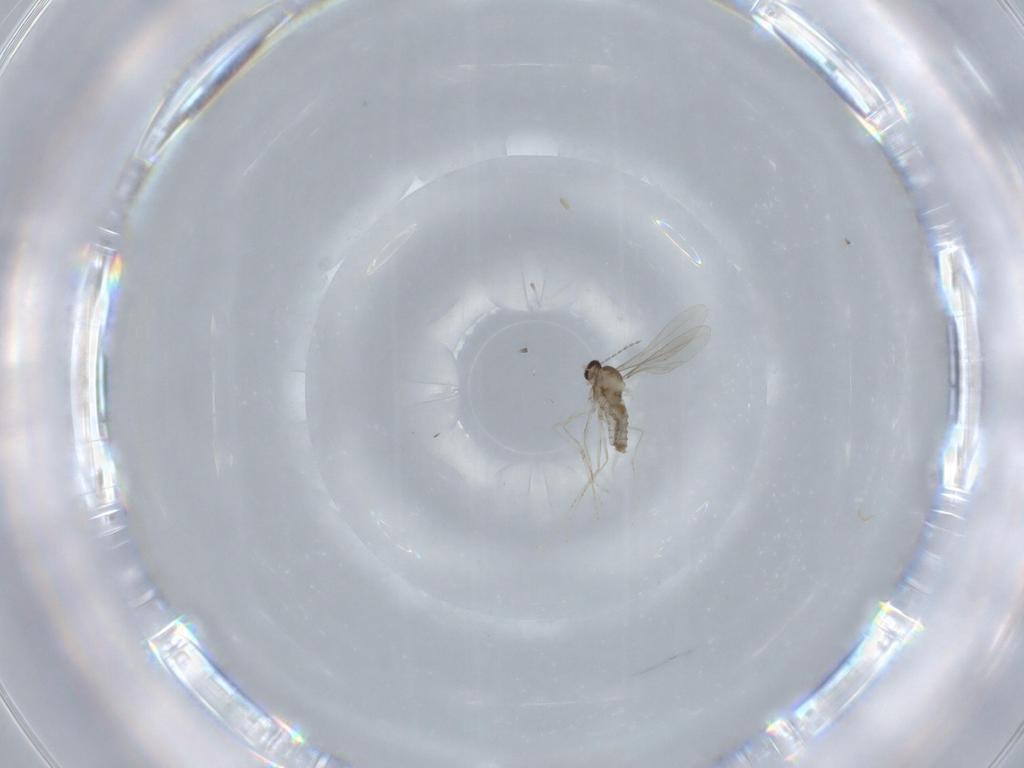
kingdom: Animalia
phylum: Arthropoda
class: Insecta
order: Diptera
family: Cecidomyiidae
